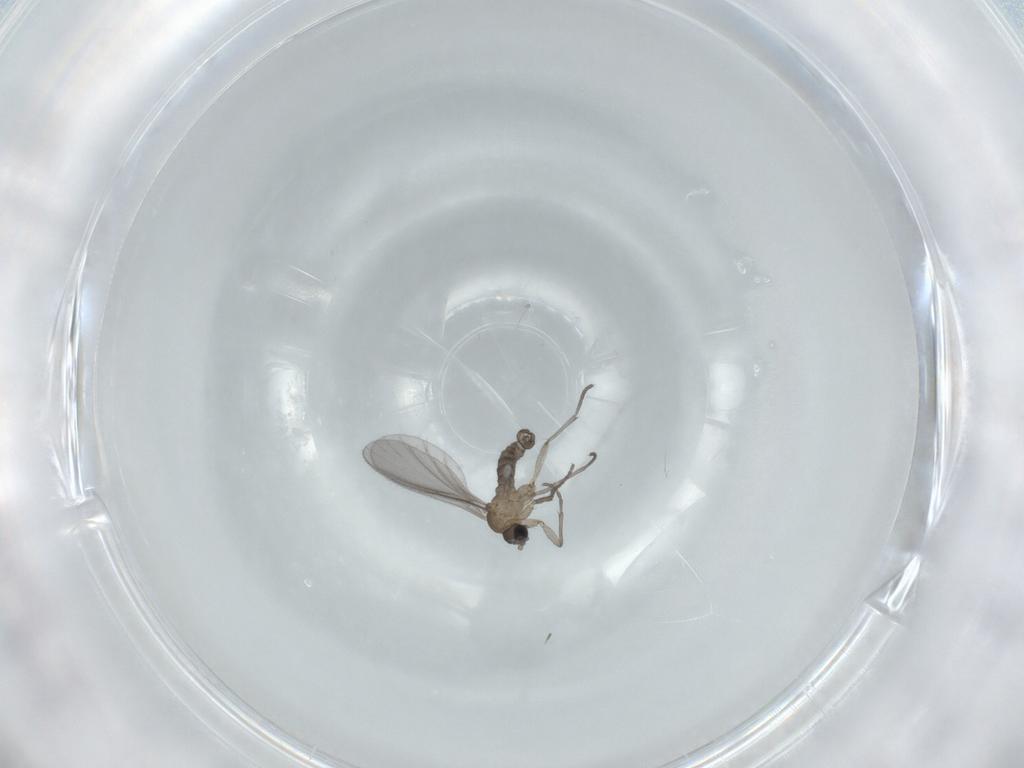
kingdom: Animalia
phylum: Arthropoda
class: Insecta
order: Diptera
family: Sciaridae
